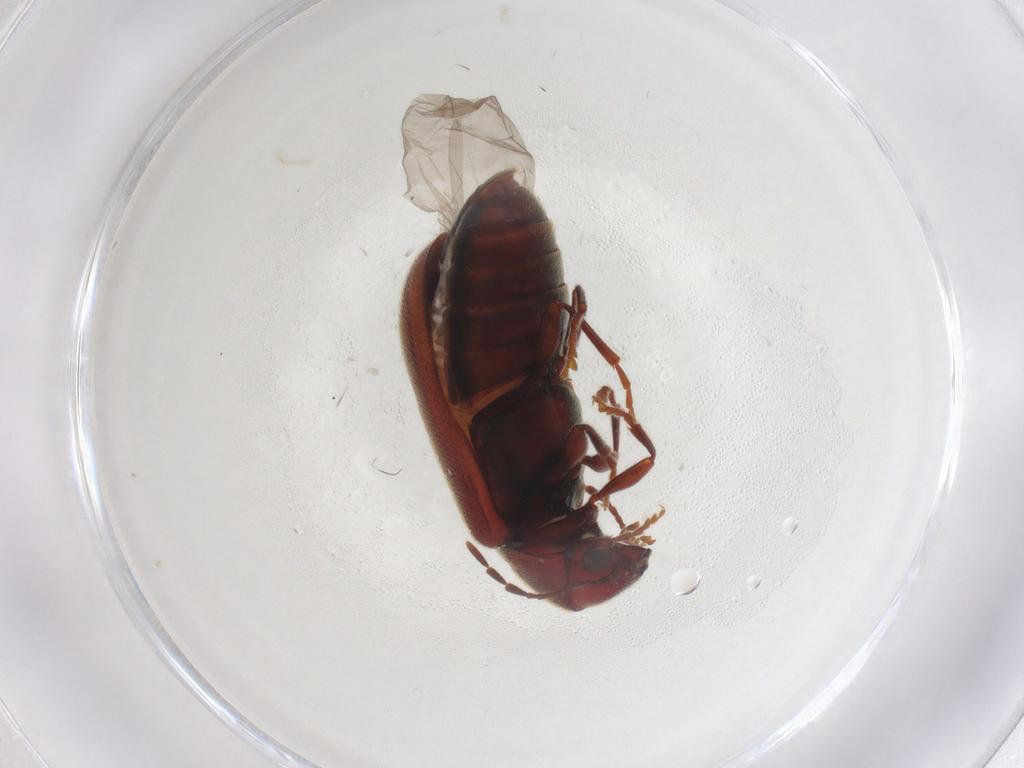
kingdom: Animalia
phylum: Arthropoda
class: Insecta
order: Coleoptera
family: Ptinidae
